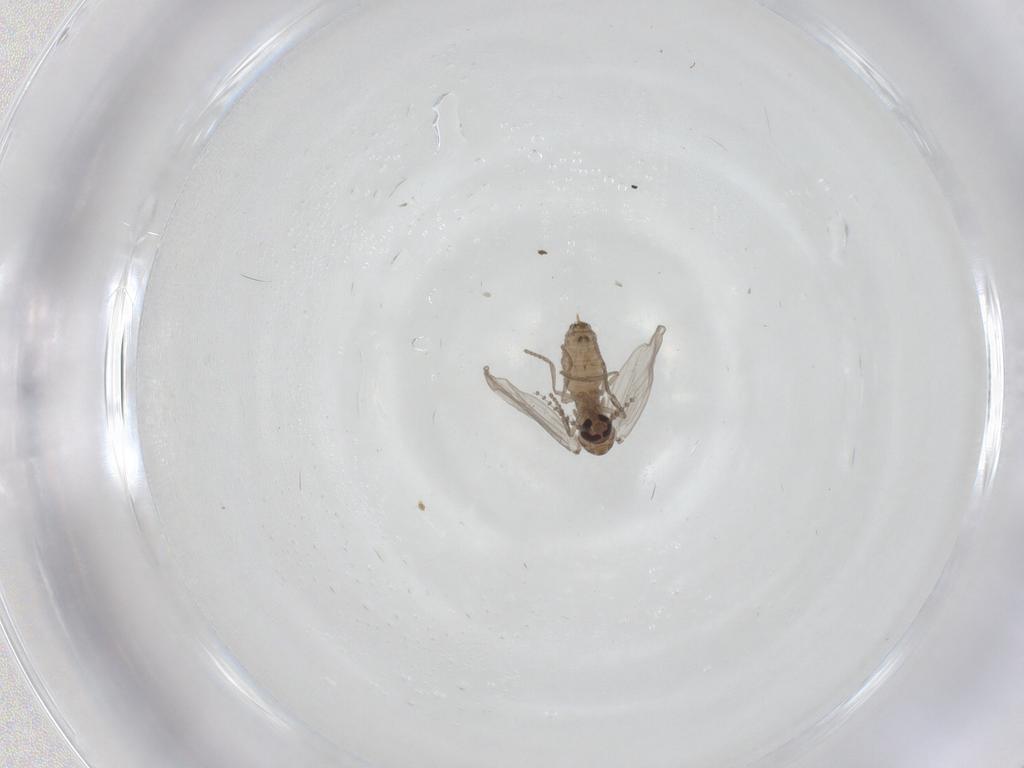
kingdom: Animalia
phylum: Arthropoda
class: Insecta
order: Diptera
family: Psychodidae
